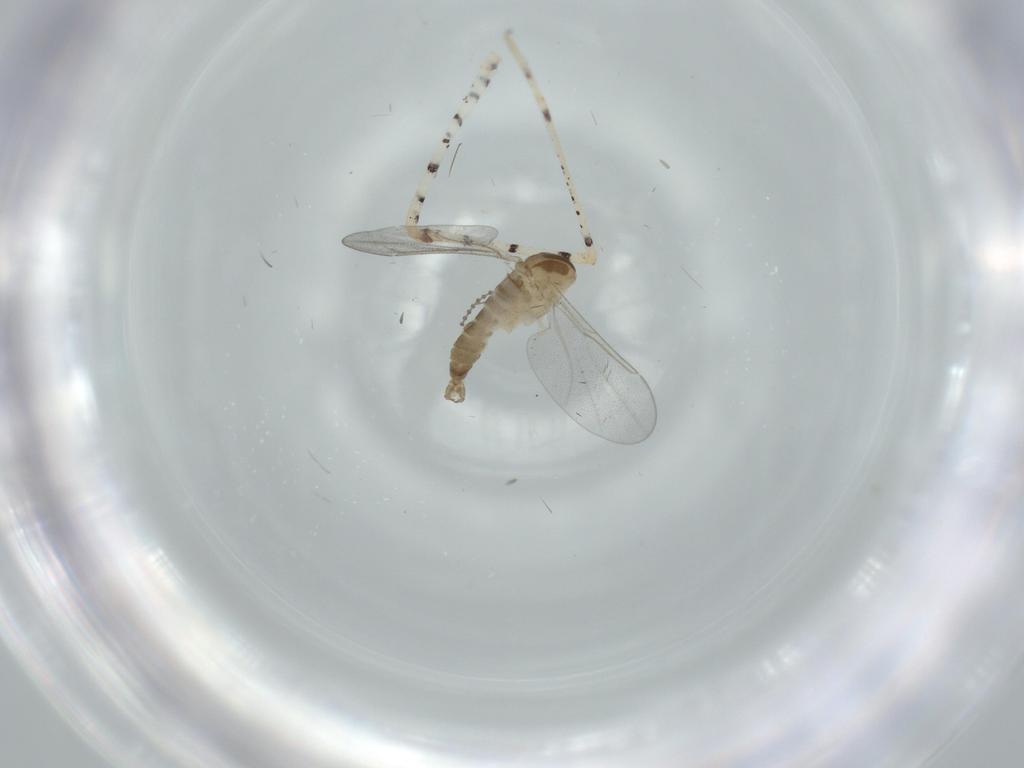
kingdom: Animalia
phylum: Arthropoda
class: Insecta
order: Diptera
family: Cecidomyiidae
